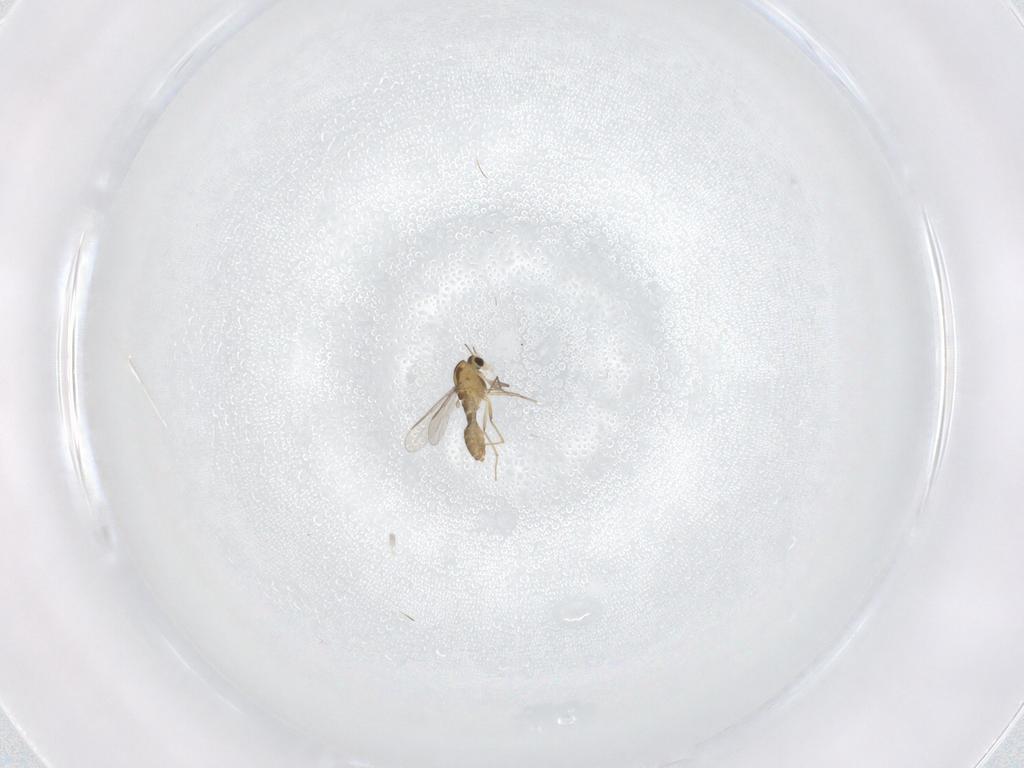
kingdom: Animalia
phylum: Arthropoda
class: Insecta
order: Diptera
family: Chironomidae
